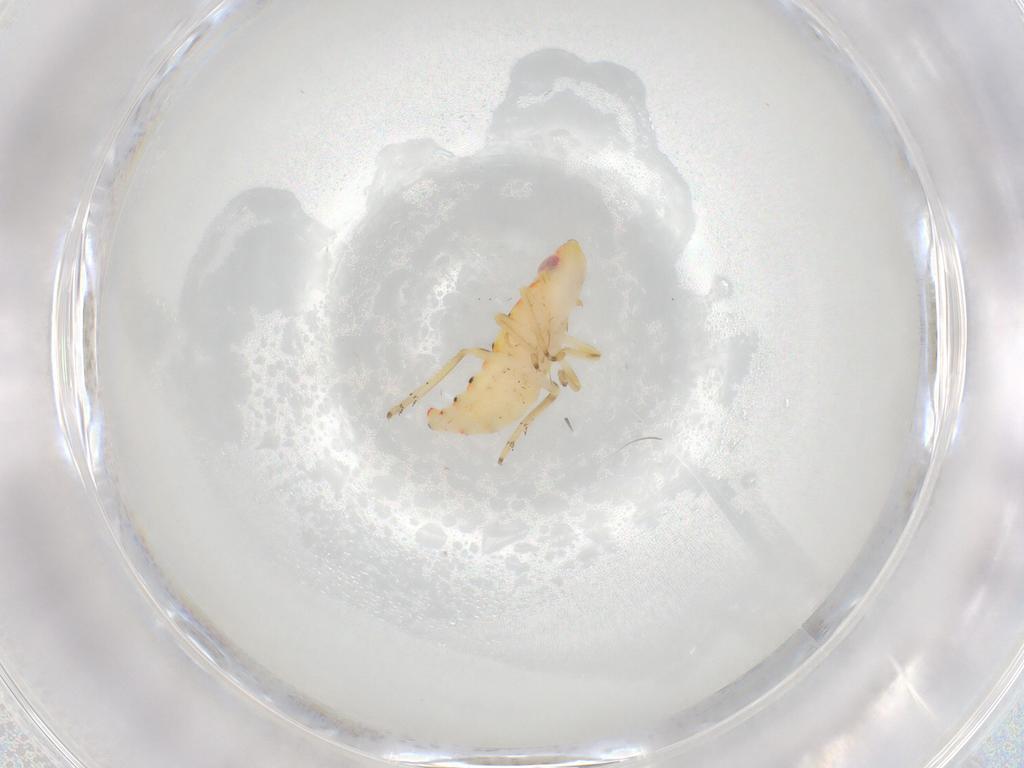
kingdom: Animalia
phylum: Arthropoda
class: Insecta
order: Hemiptera
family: Tropiduchidae
